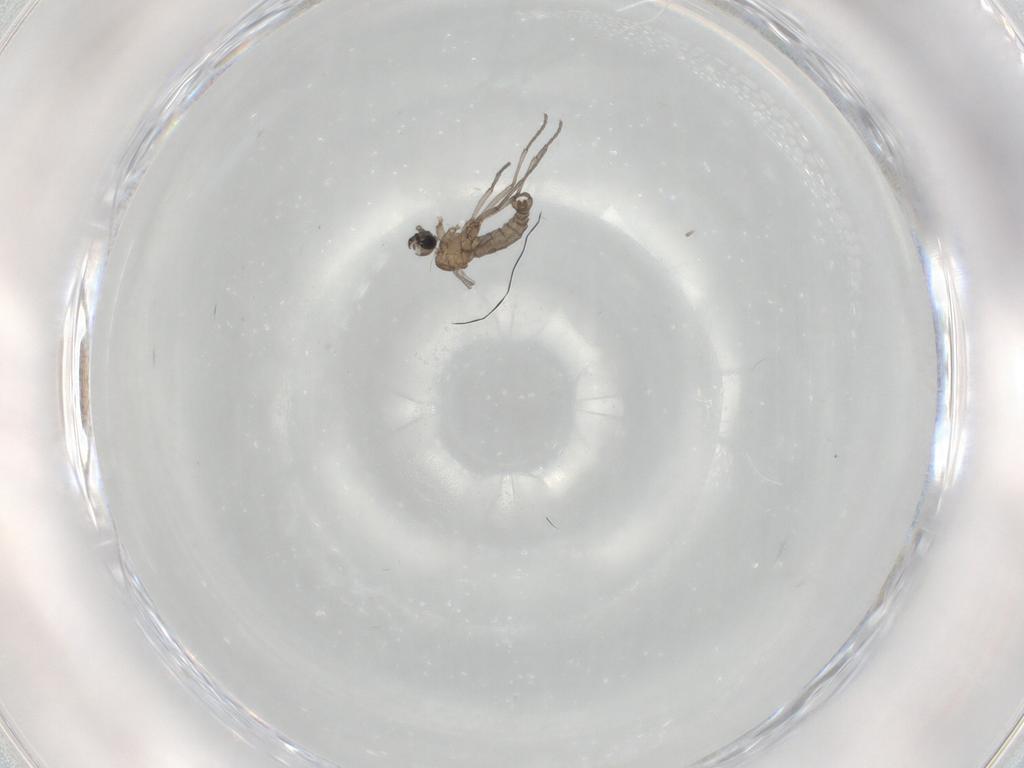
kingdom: Animalia
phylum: Arthropoda
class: Insecta
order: Diptera
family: Sciaridae
